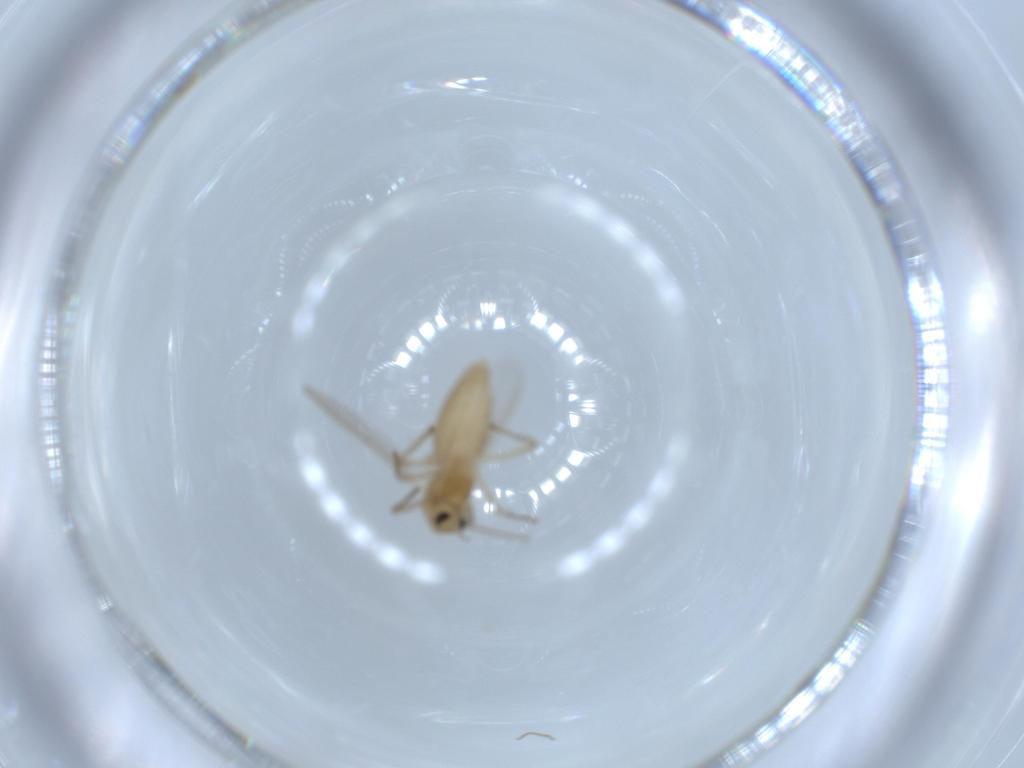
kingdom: Animalia
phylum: Arthropoda
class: Insecta
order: Diptera
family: Chironomidae
